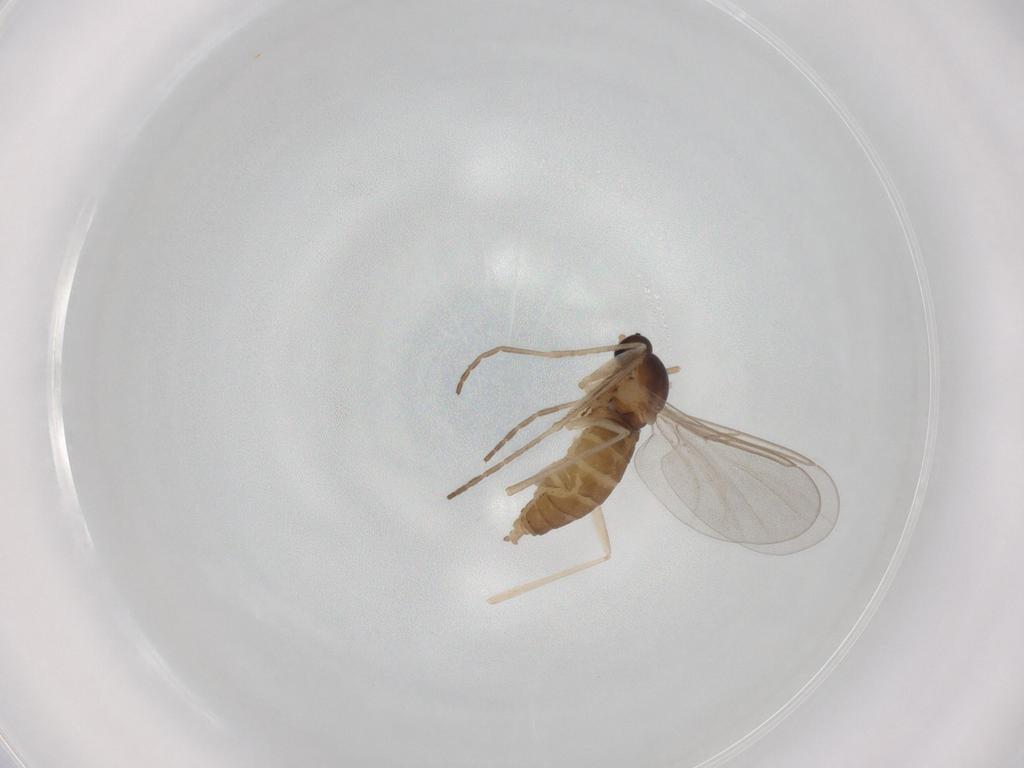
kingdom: Animalia
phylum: Arthropoda
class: Insecta
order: Diptera
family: Cecidomyiidae
